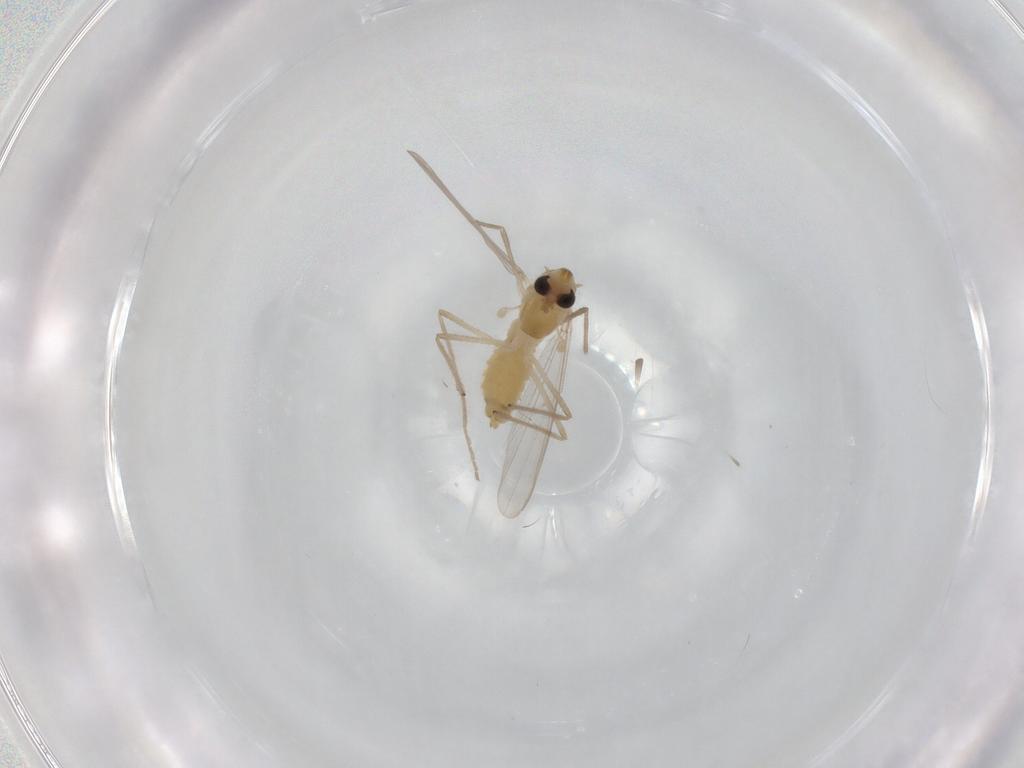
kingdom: Animalia
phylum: Arthropoda
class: Insecta
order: Diptera
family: Chironomidae
